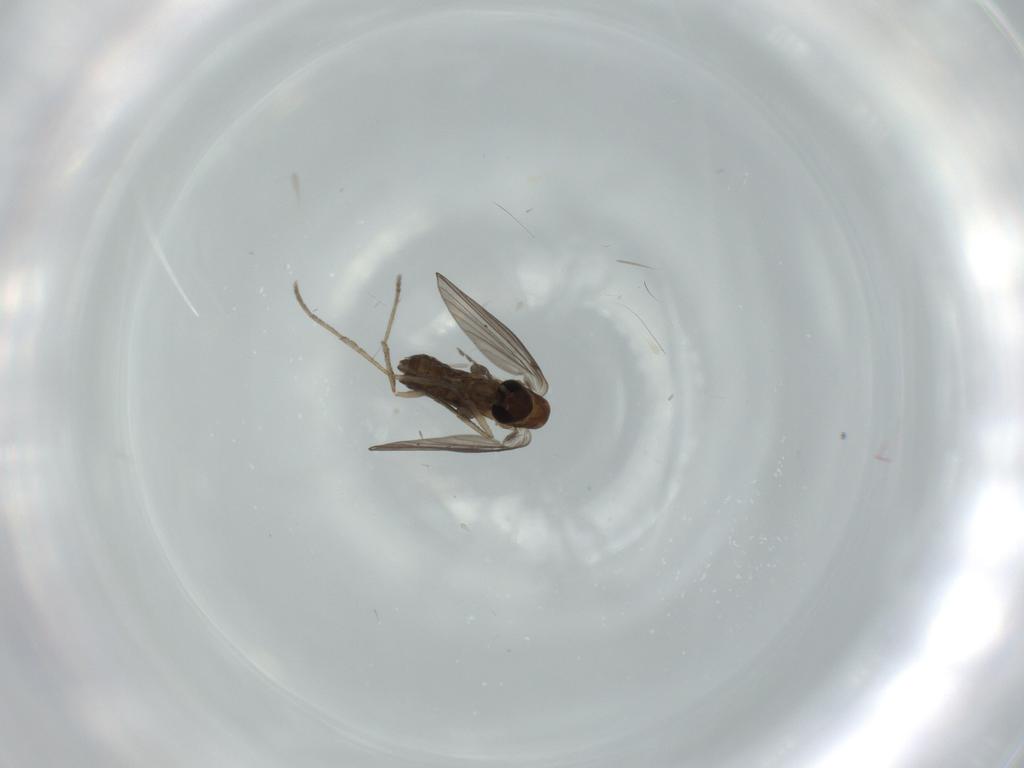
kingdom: Animalia
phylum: Arthropoda
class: Insecta
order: Diptera
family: Psychodidae
